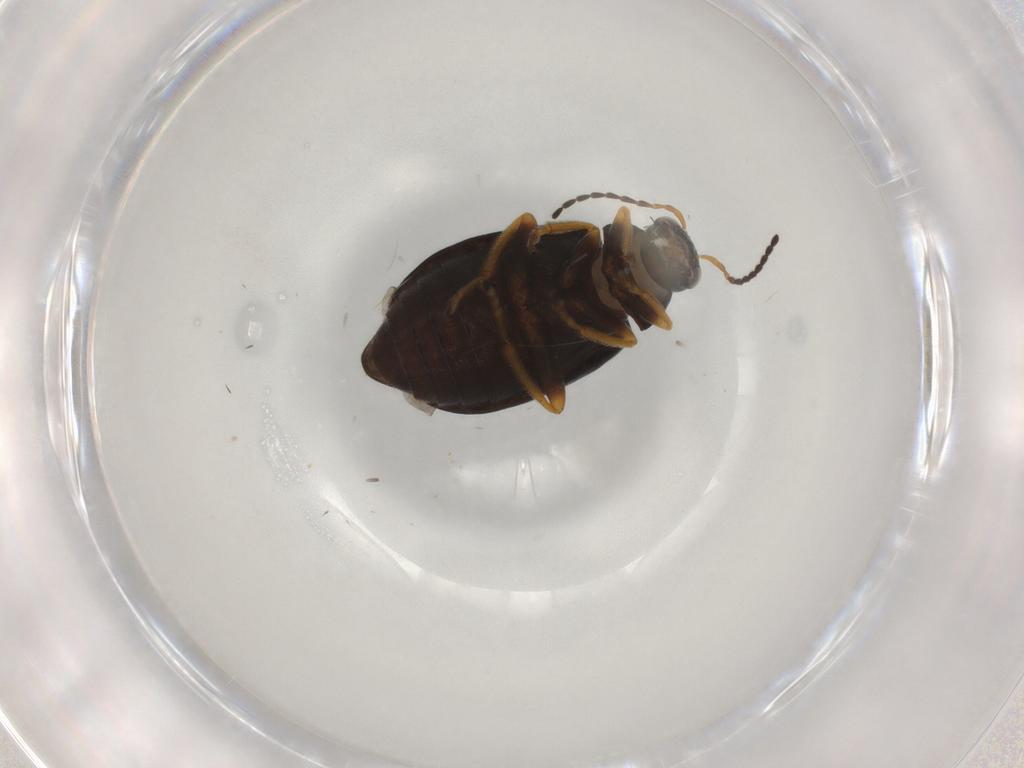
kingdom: Animalia
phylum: Arthropoda
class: Insecta
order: Coleoptera
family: Chrysomelidae
